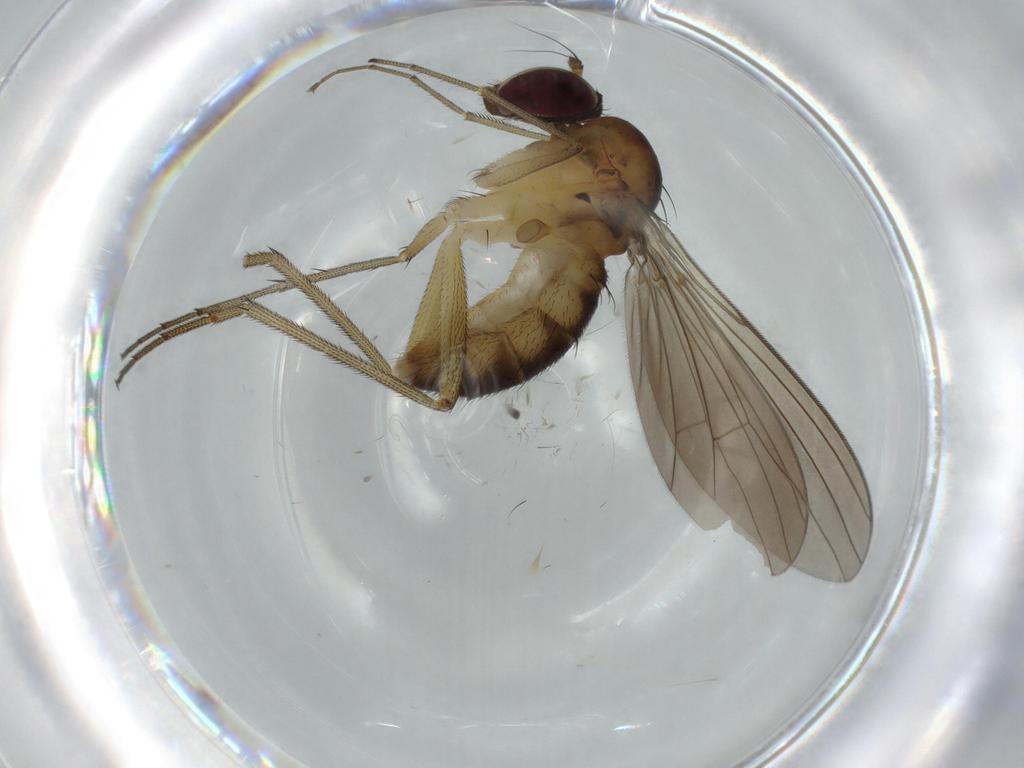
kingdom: Animalia
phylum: Arthropoda
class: Insecta
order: Diptera
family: Dolichopodidae
